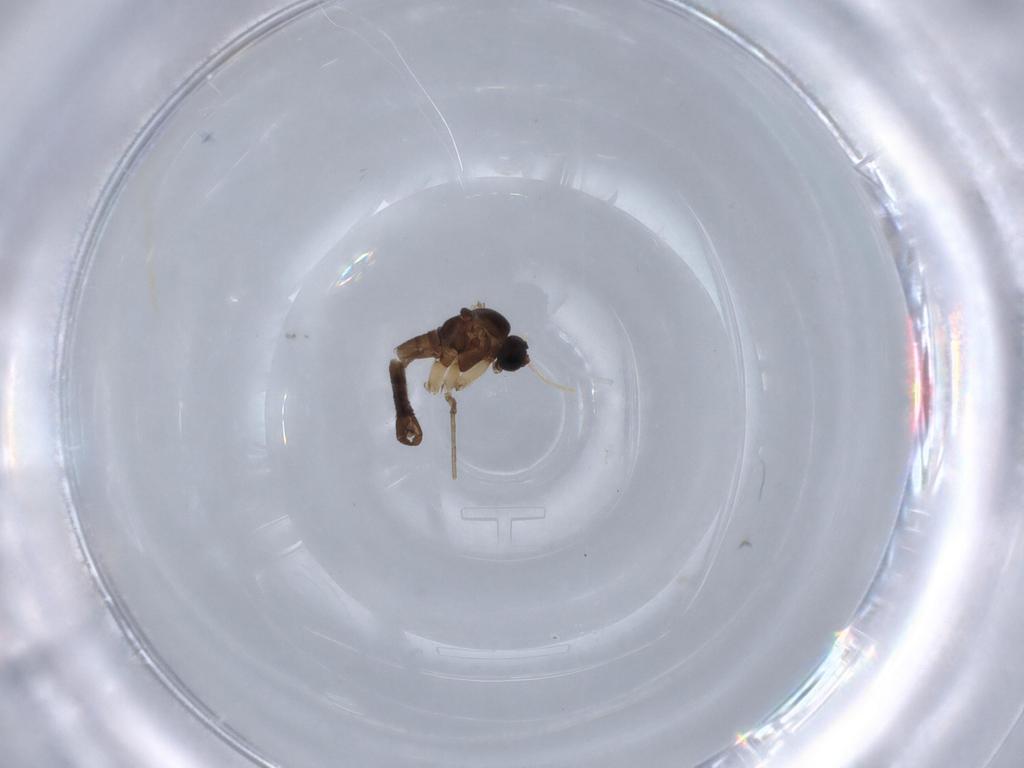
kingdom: Animalia
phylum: Arthropoda
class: Insecta
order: Diptera
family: Sciaridae
